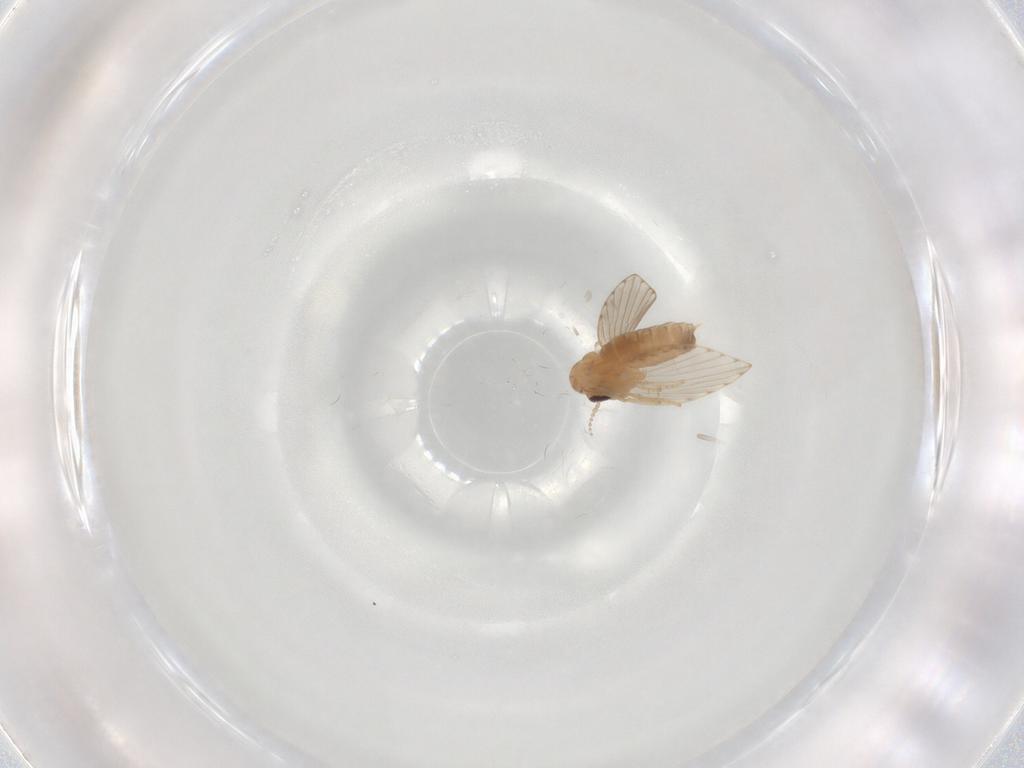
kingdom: Animalia
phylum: Arthropoda
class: Insecta
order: Diptera
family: Psychodidae
